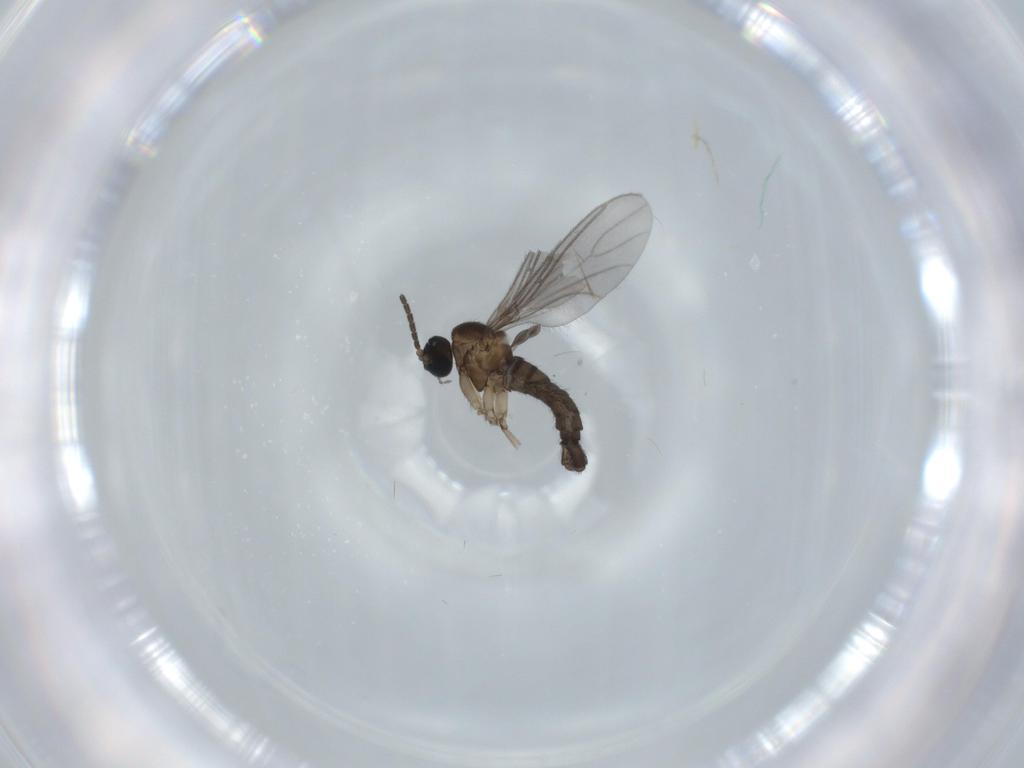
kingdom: Animalia
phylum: Arthropoda
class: Insecta
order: Diptera
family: Sciaridae
